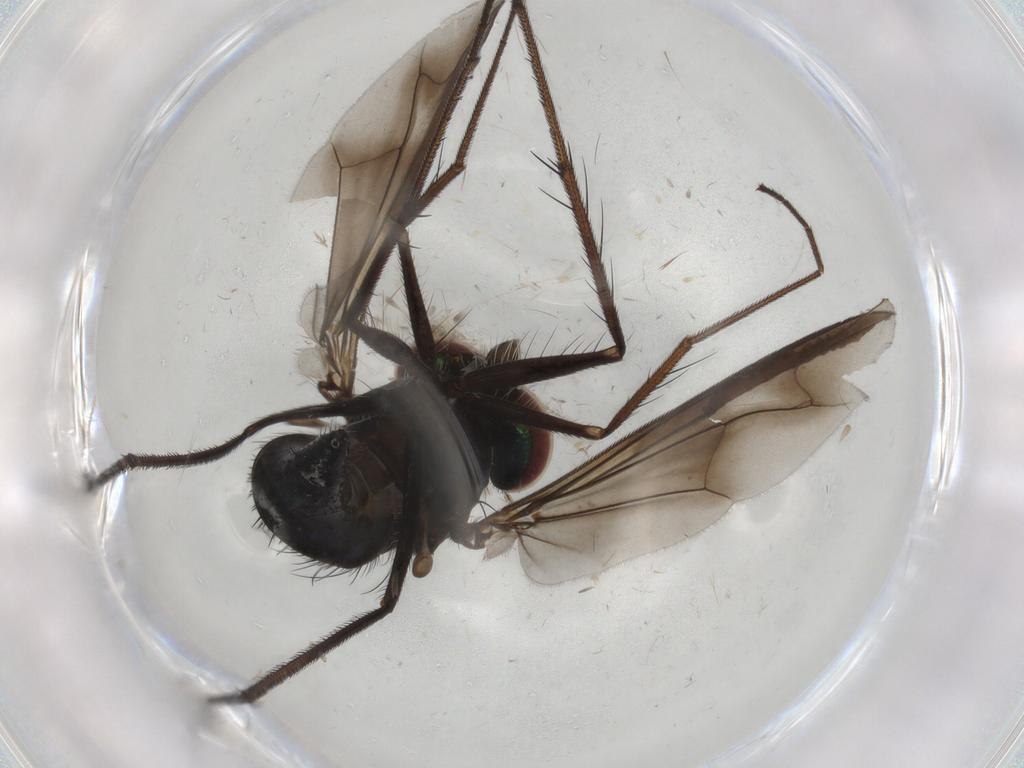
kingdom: Animalia
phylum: Arthropoda
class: Insecta
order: Diptera
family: Dolichopodidae
